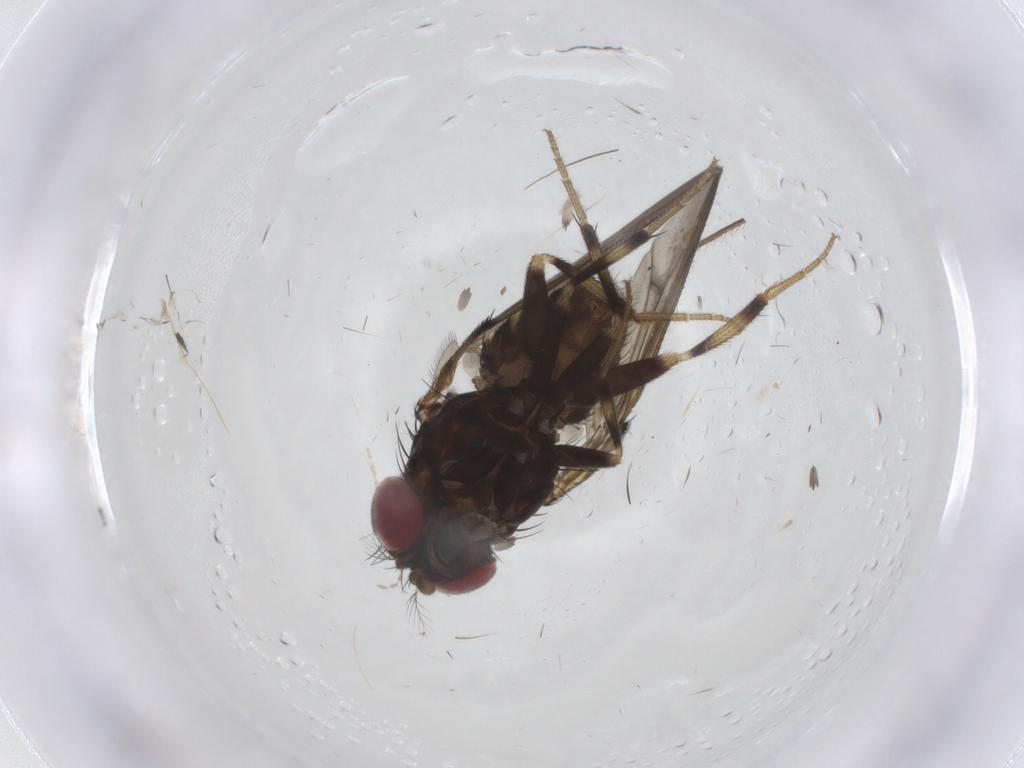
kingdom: Animalia
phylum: Arthropoda
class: Insecta
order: Diptera
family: Drosophilidae
